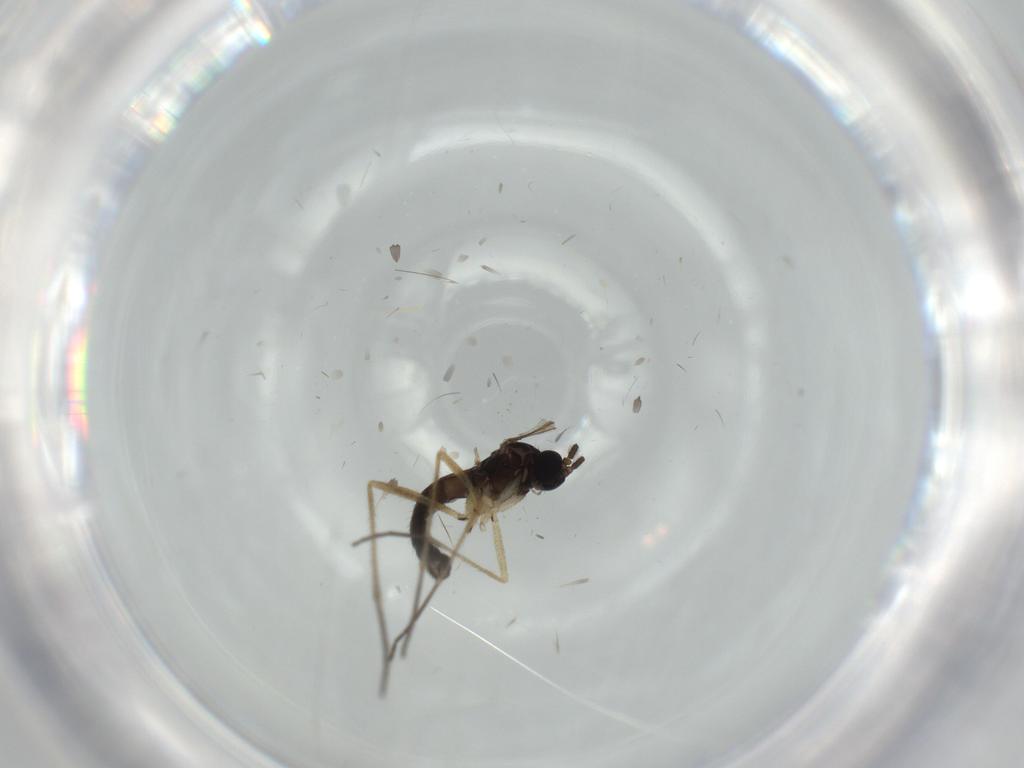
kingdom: Animalia
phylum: Arthropoda
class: Insecta
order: Diptera
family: Sciaridae
